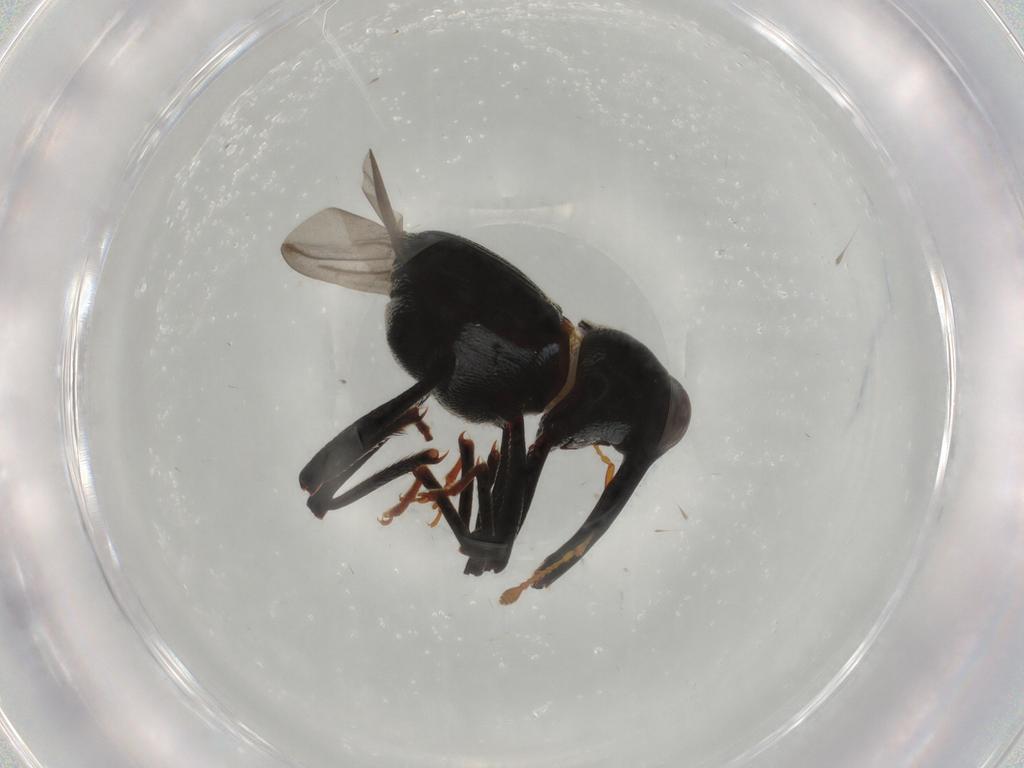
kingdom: Animalia
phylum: Arthropoda
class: Insecta
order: Coleoptera
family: Curculionidae
